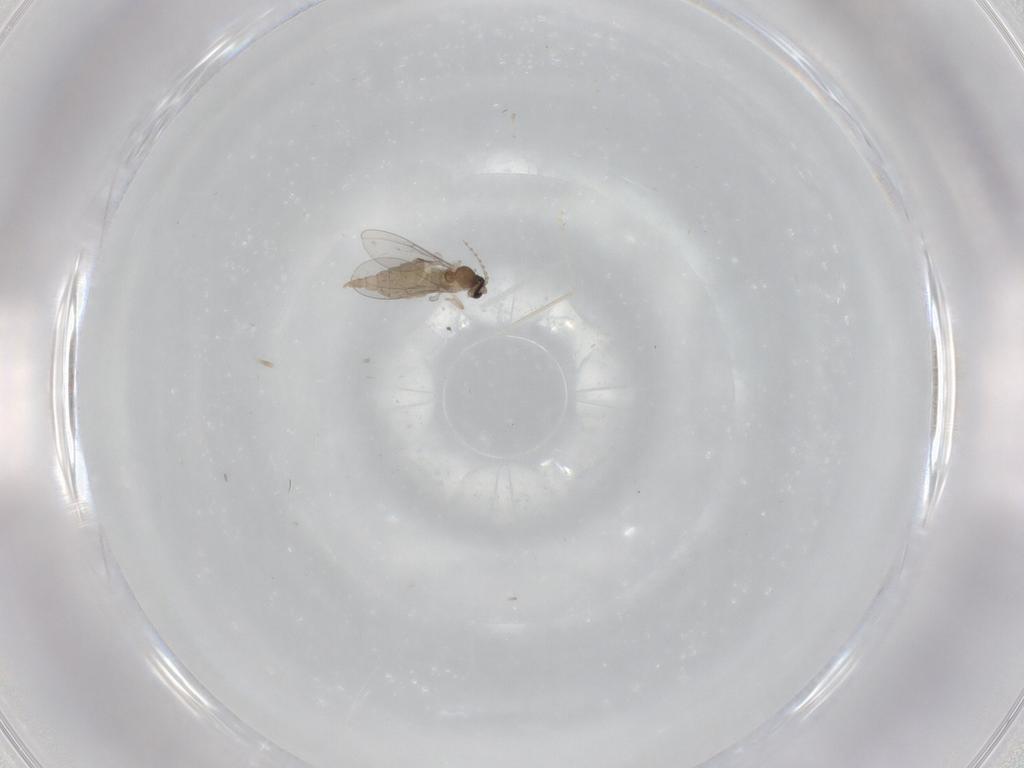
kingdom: Animalia
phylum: Arthropoda
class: Insecta
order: Diptera
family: Cecidomyiidae
